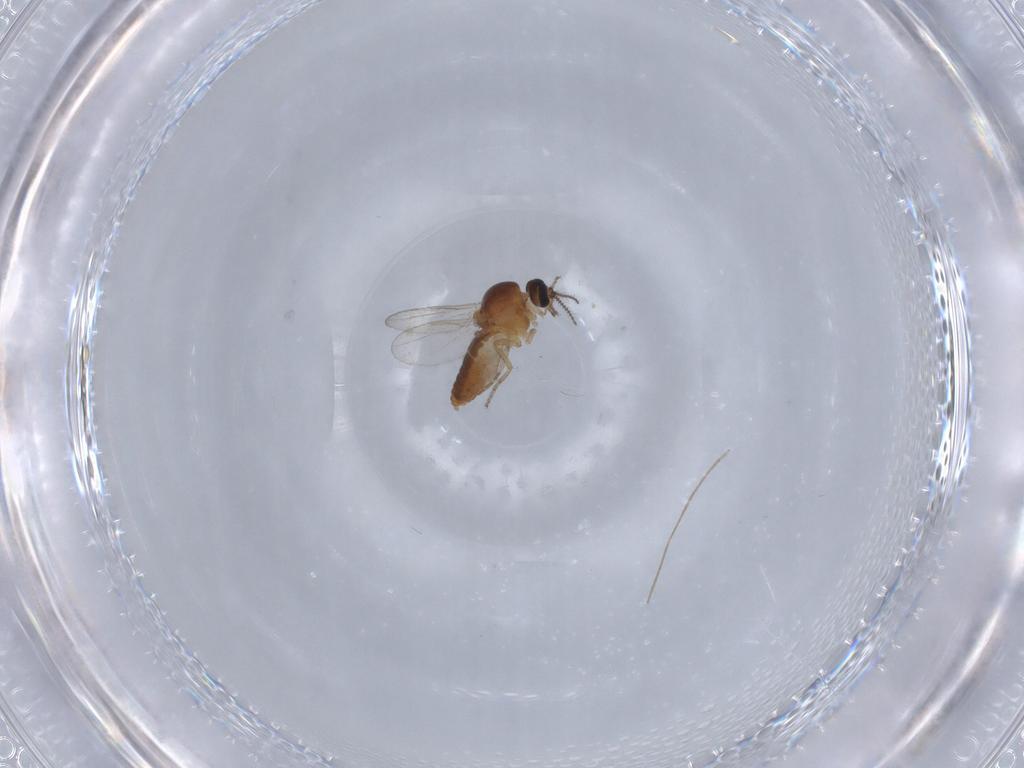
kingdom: Animalia
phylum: Arthropoda
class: Insecta
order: Diptera
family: Ceratopogonidae
